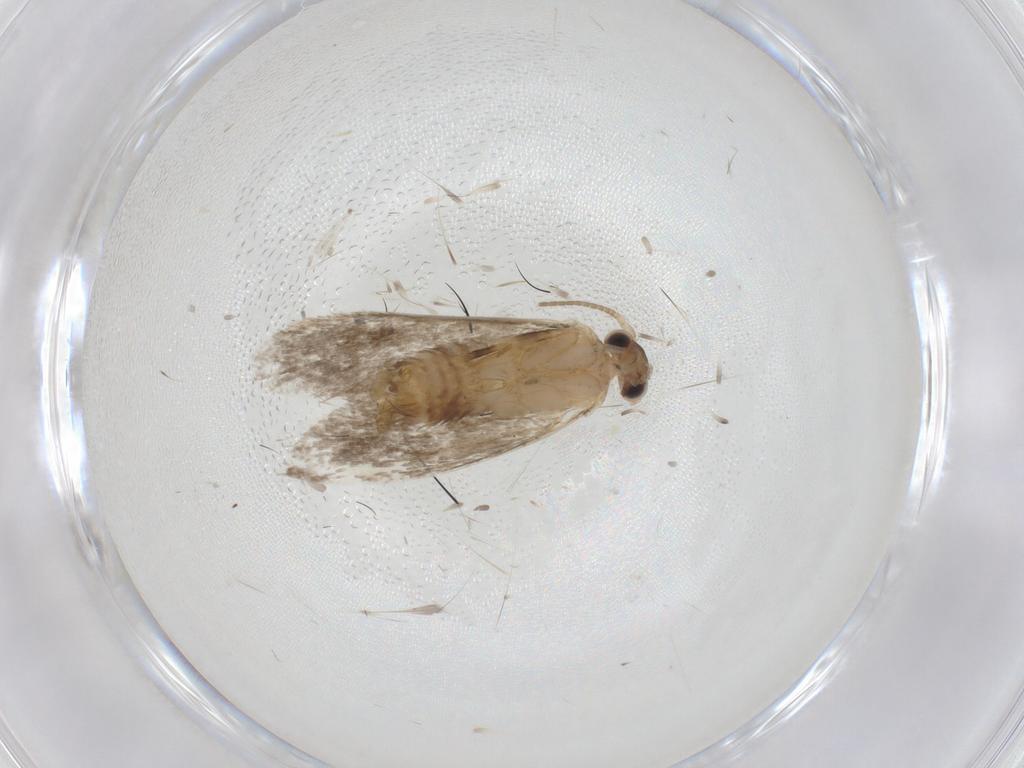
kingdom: Animalia
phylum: Arthropoda
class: Insecta
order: Lepidoptera
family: Dryadaulidae
